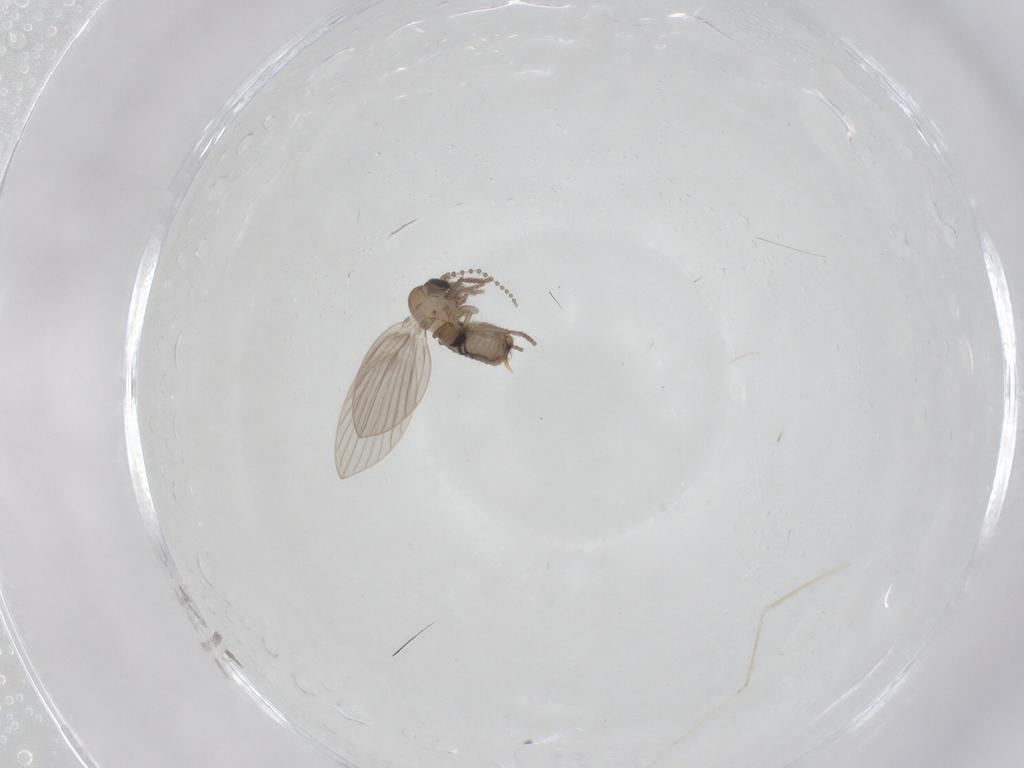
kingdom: Animalia
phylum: Arthropoda
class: Insecta
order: Diptera
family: Psychodidae
